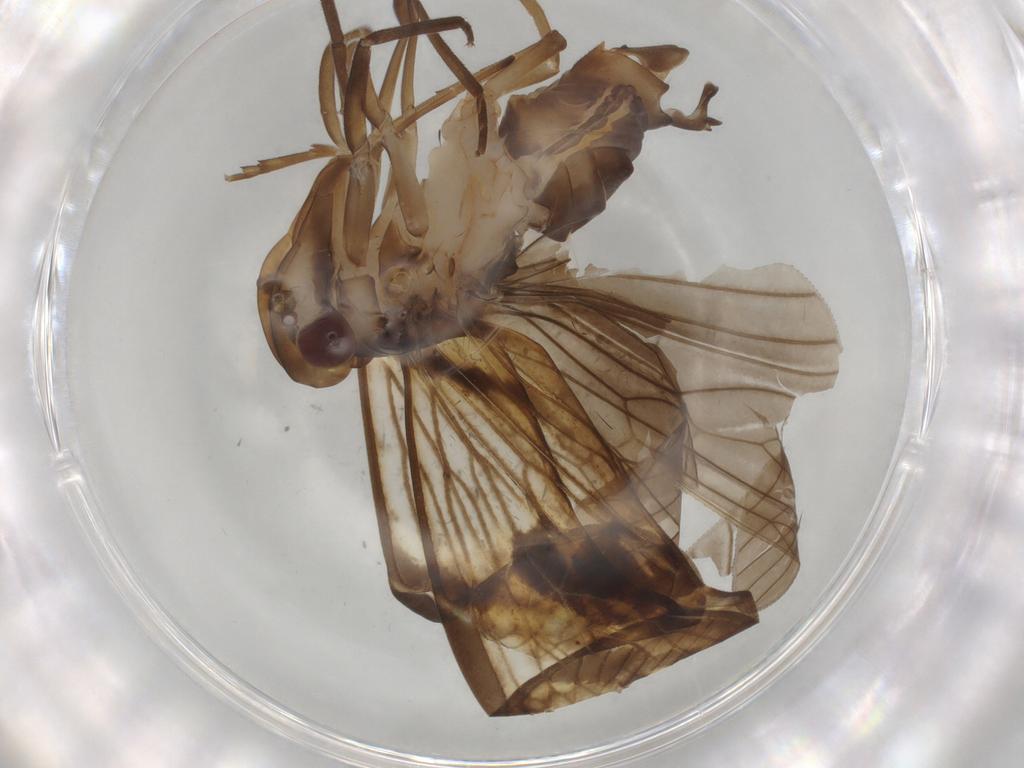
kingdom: Animalia
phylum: Arthropoda
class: Insecta
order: Hemiptera
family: Cixiidae
